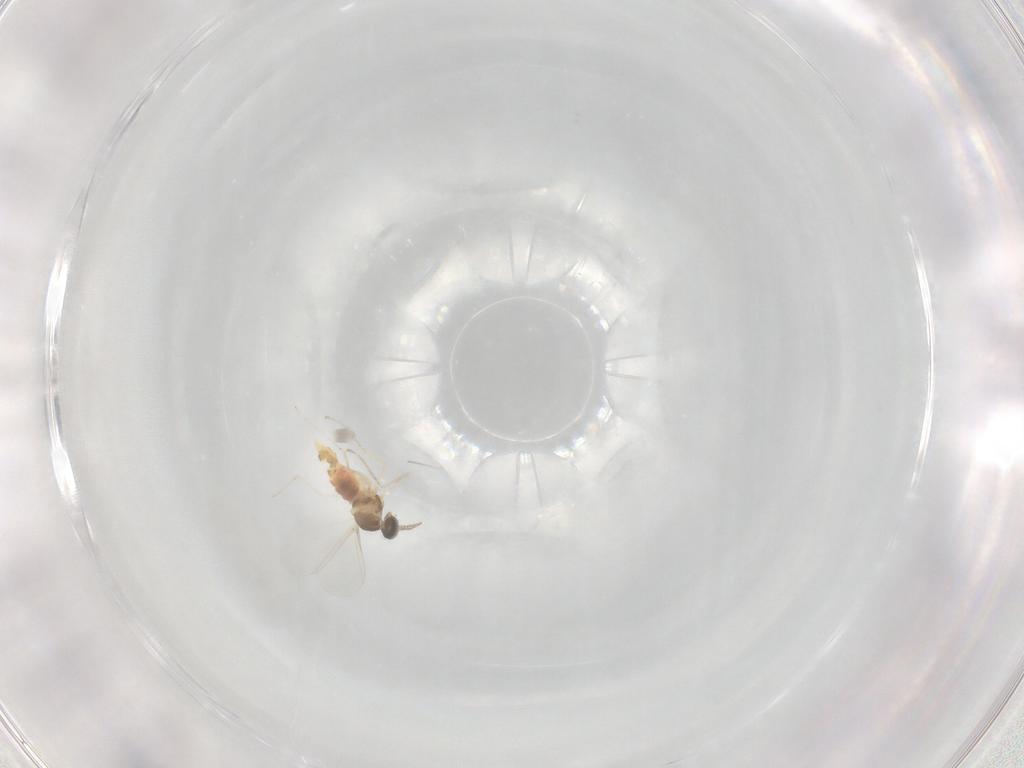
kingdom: Animalia
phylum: Arthropoda
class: Insecta
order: Diptera
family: Cecidomyiidae
